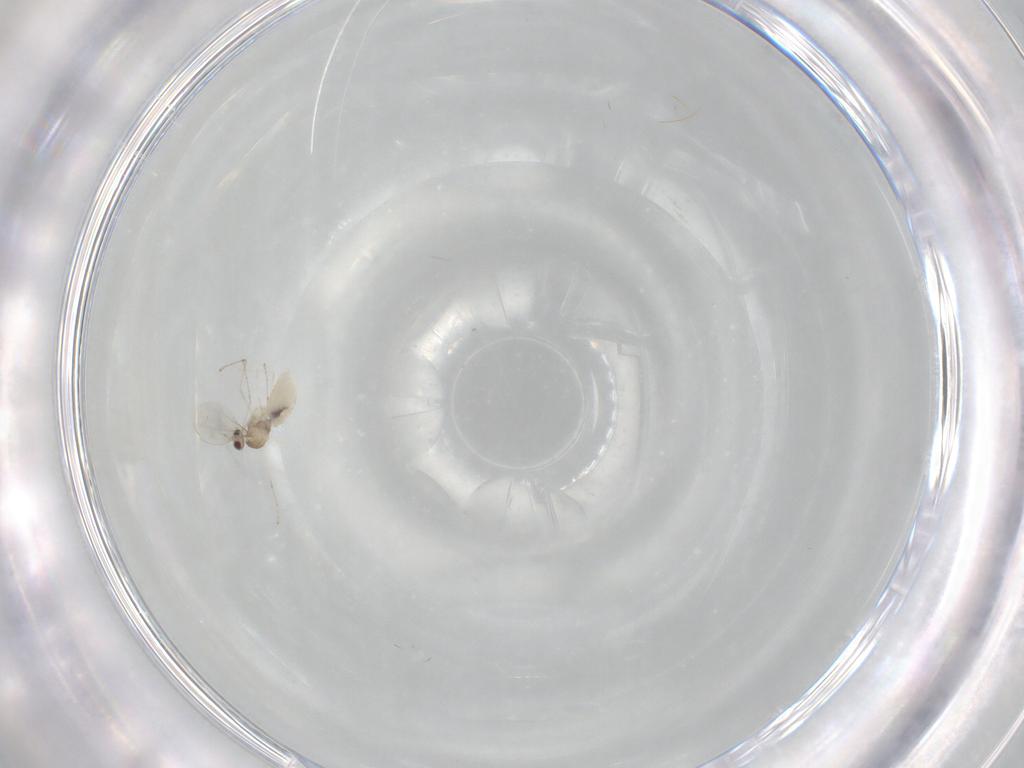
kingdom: Animalia
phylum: Arthropoda
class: Insecta
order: Diptera
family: Cecidomyiidae
